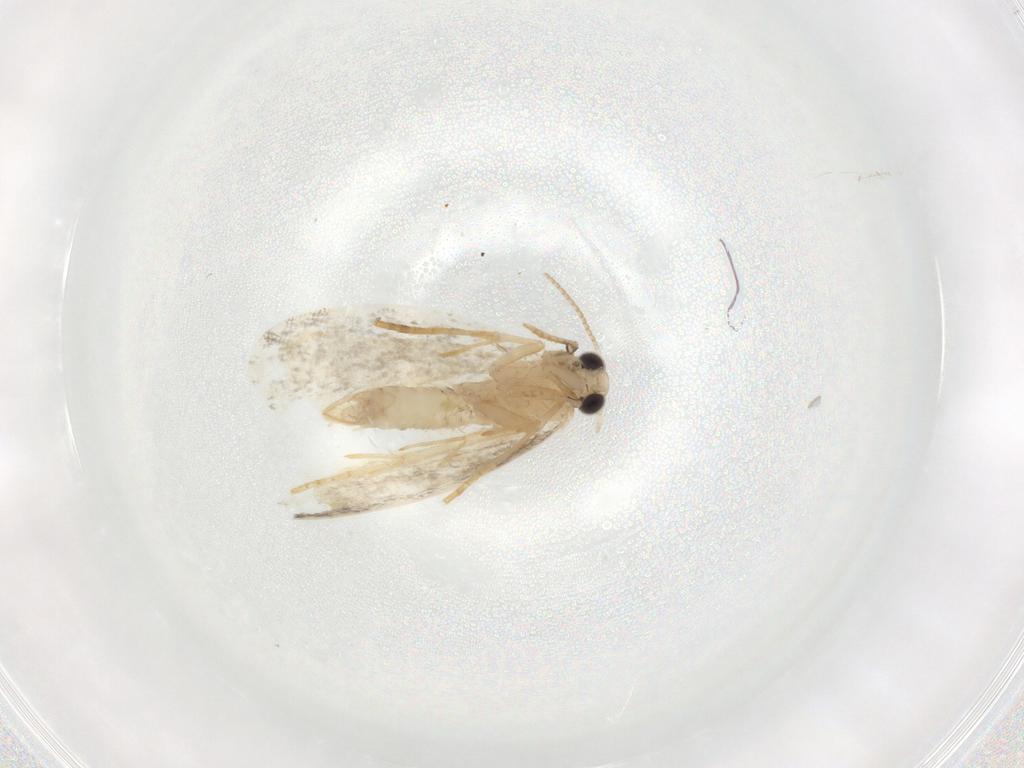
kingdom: Animalia
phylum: Arthropoda
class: Insecta
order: Lepidoptera
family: Psychidae
